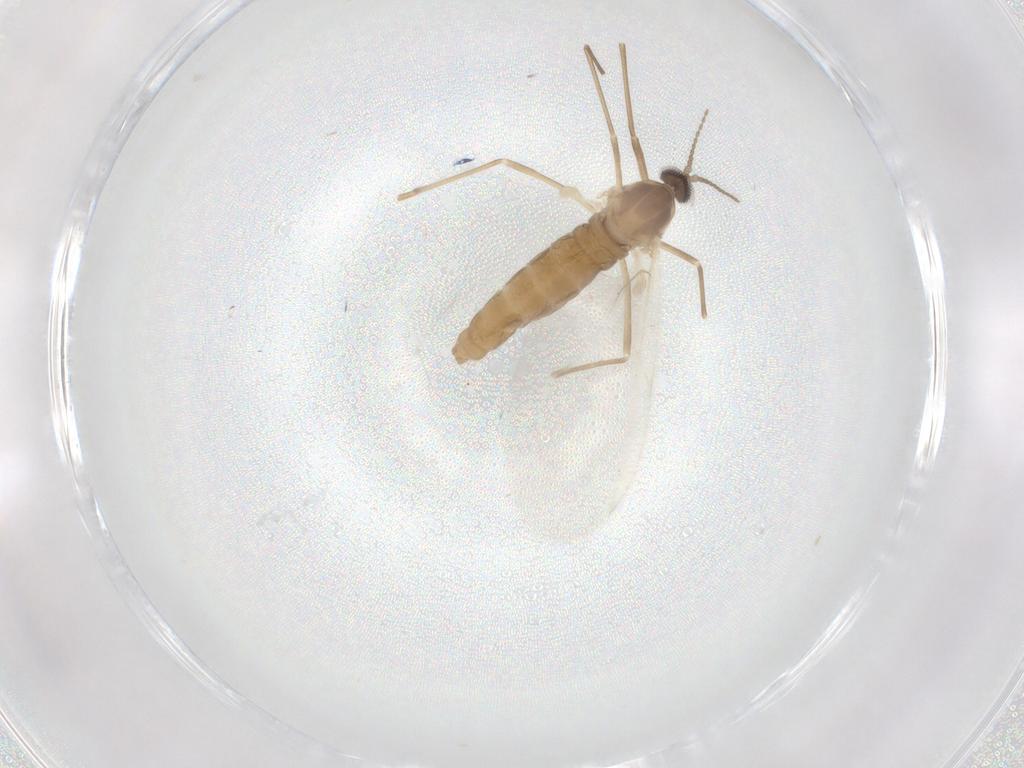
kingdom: Animalia
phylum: Arthropoda
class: Insecta
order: Diptera
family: Cecidomyiidae
